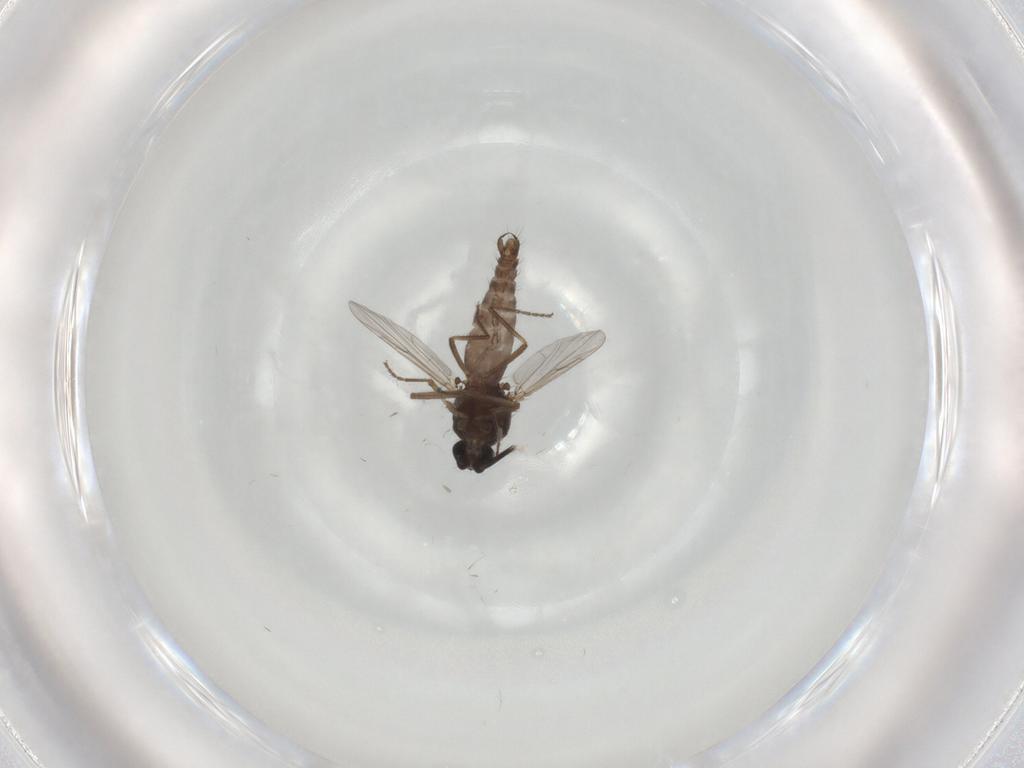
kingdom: Animalia
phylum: Arthropoda
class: Insecta
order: Diptera
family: Ceratopogonidae
